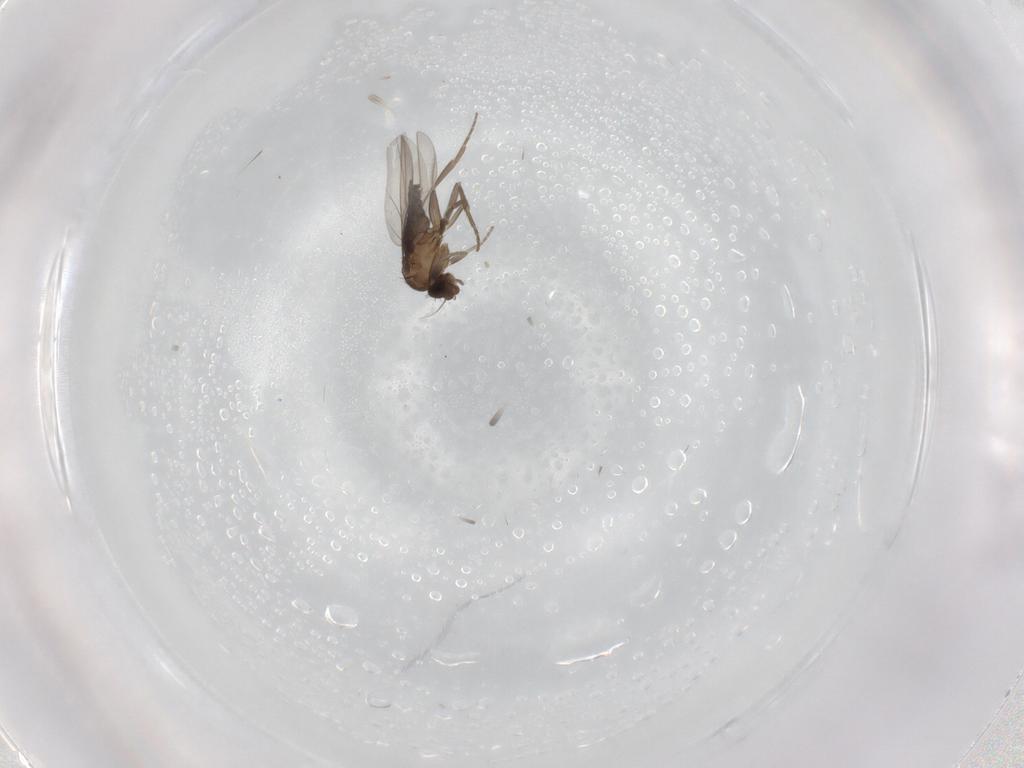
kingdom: Animalia
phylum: Arthropoda
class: Insecta
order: Diptera
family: Phoridae
